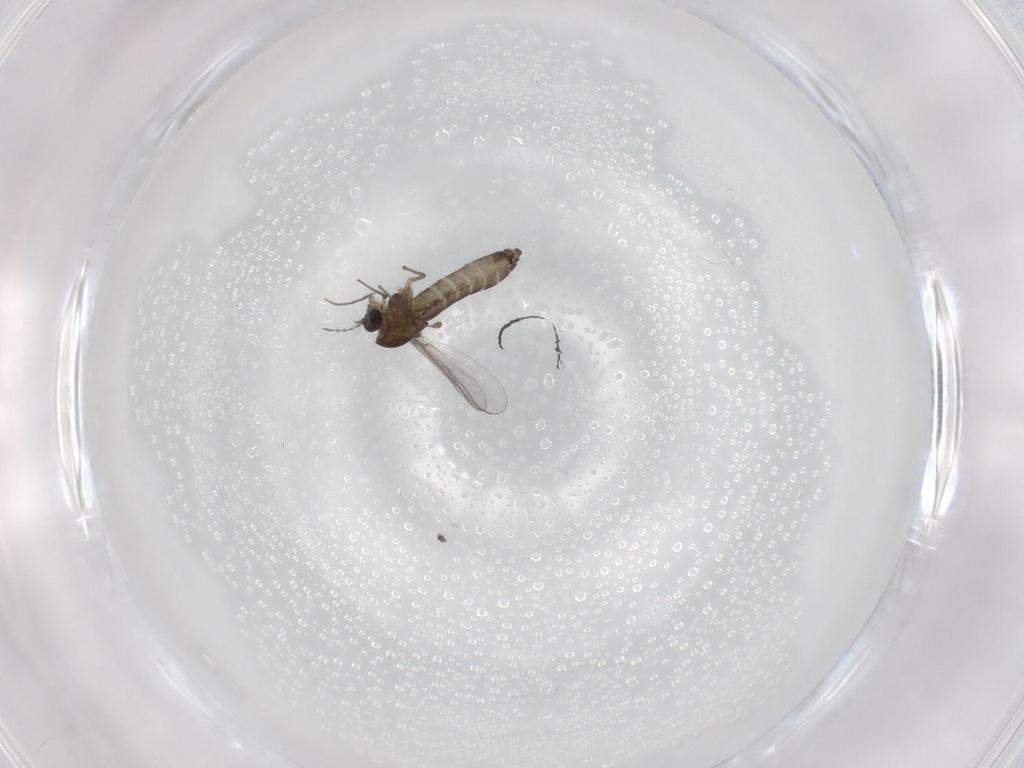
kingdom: Animalia
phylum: Arthropoda
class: Insecta
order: Diptera
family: Chironomidae
